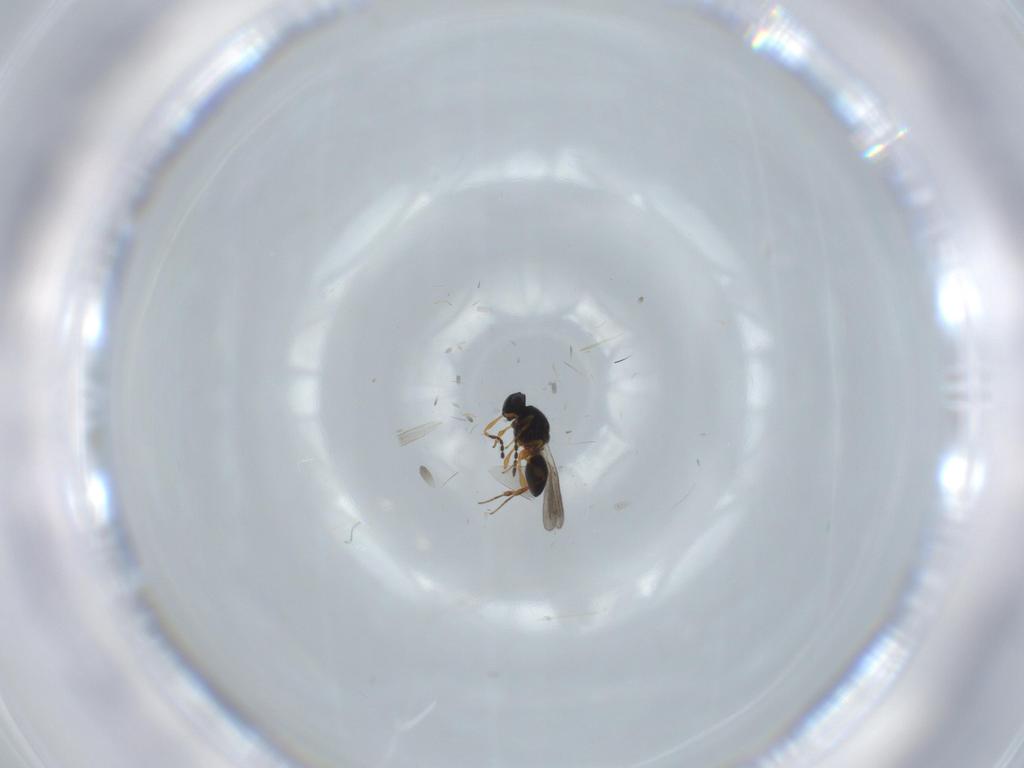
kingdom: Animalia
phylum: Arthropoda
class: Insecta
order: Hymenoptera
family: Platygastridae
